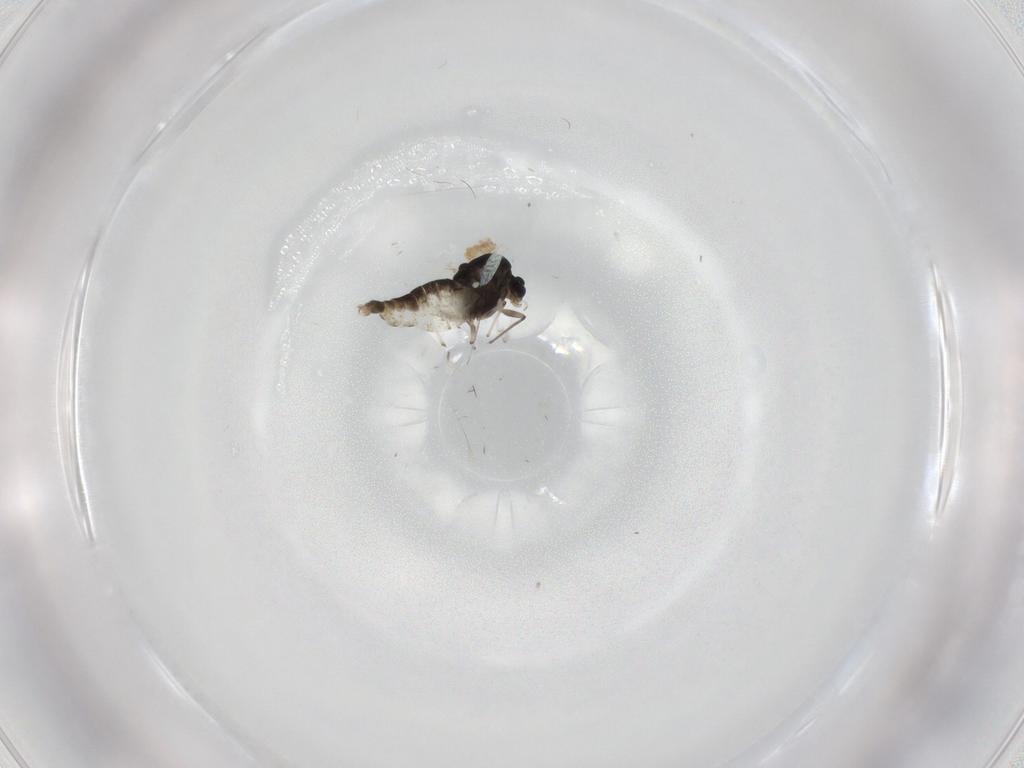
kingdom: Animalia
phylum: Arthropoda
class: Insecta
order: Diptera
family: Chironomidae
